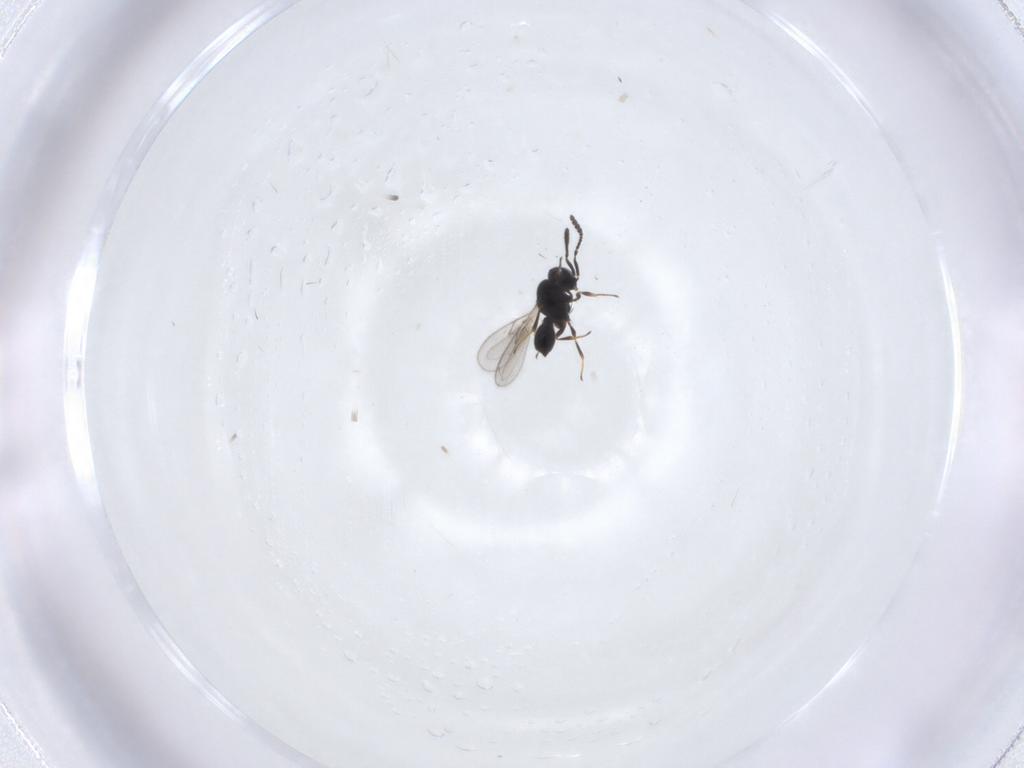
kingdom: Animalia
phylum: Arthropoda
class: Insecta
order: Hymenoptera
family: Scelionidae
